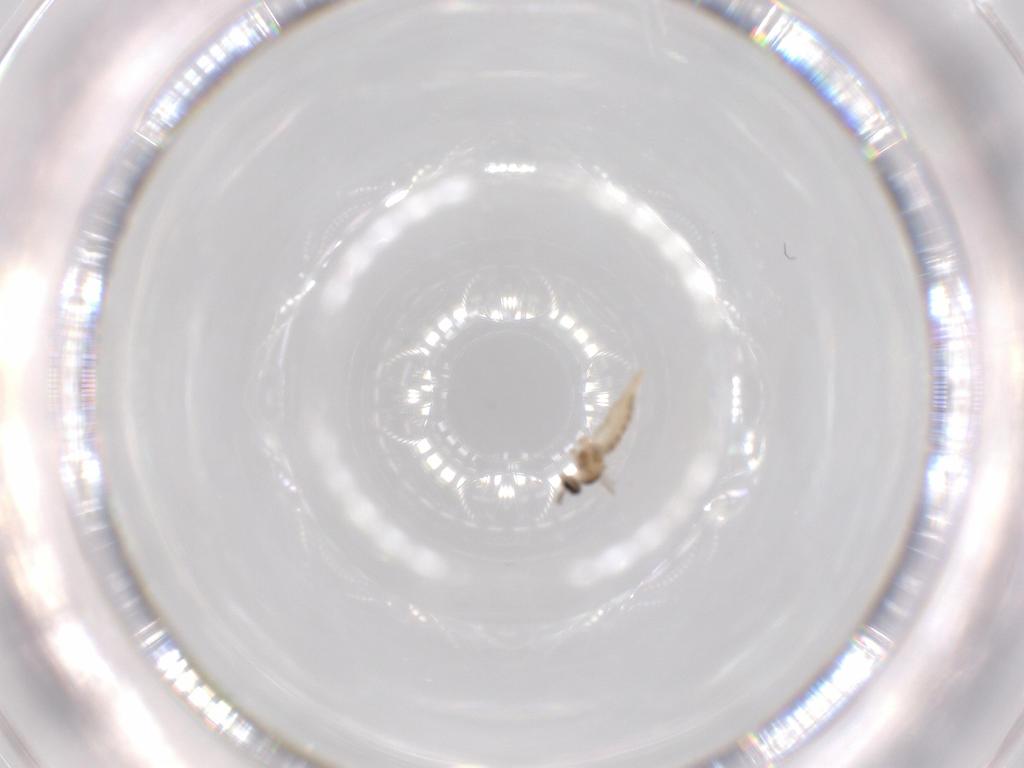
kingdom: Animalia
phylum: Arthropoda
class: Insecta
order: Diptera
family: Cecidomyiidae
